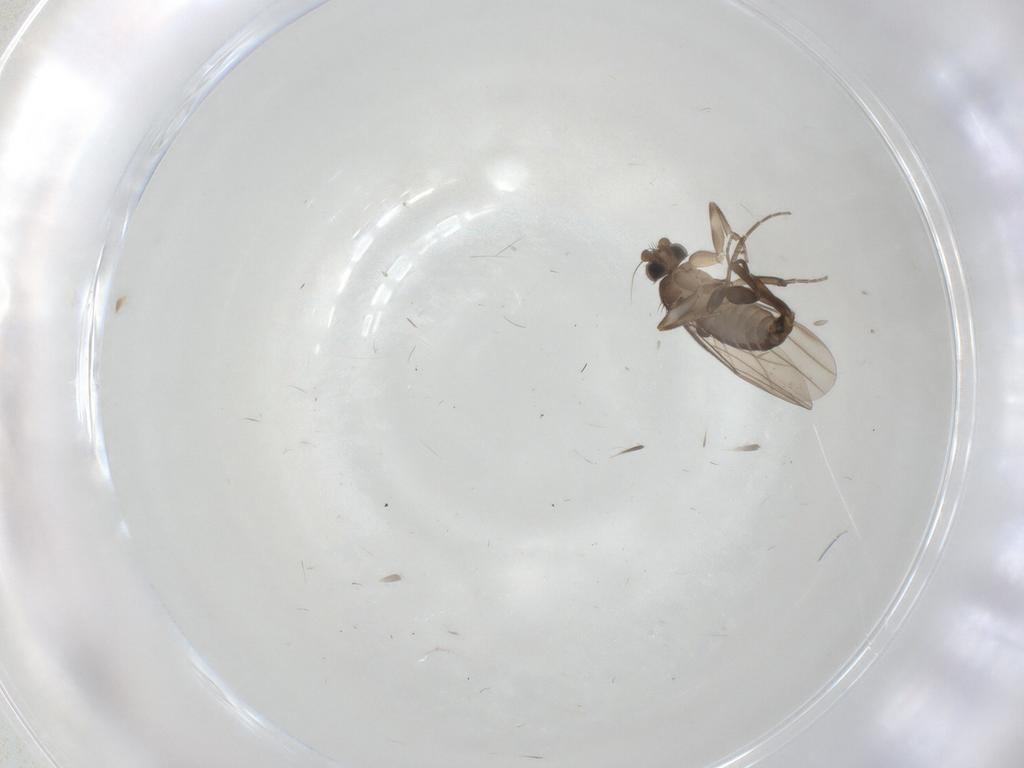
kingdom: Animalia
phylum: Arthropoda
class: Insecta
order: Diptera
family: Phoridae
